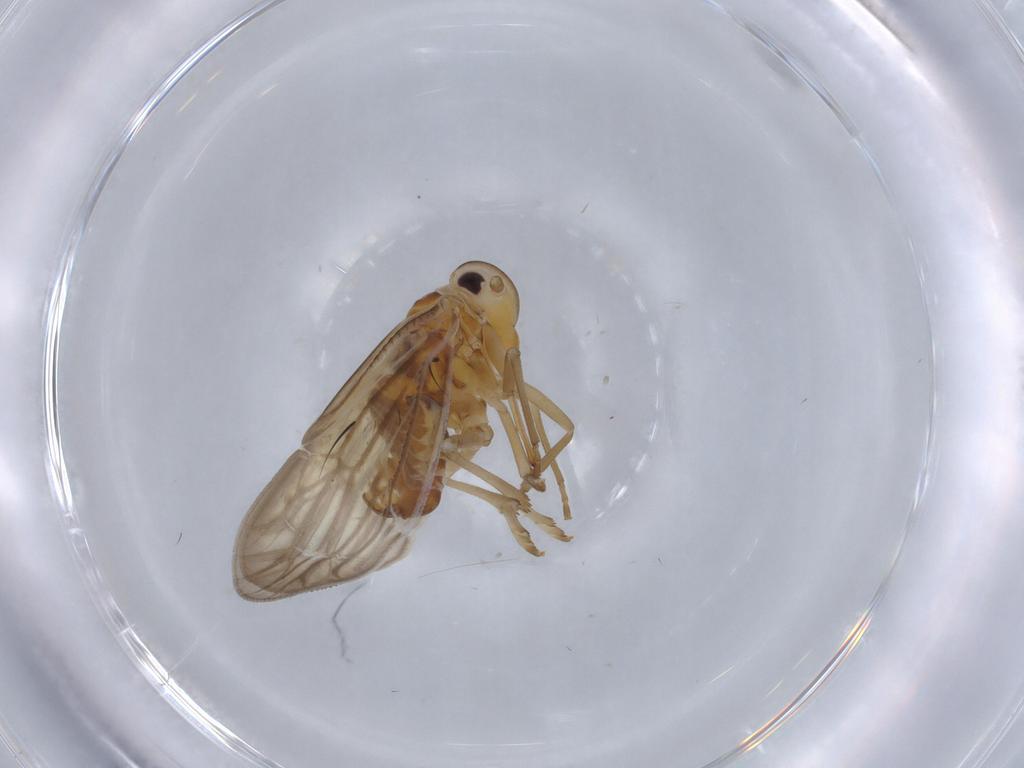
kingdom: Animalia
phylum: Arthropoda
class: Insecta
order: Hemiptera
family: Meenoplidae
